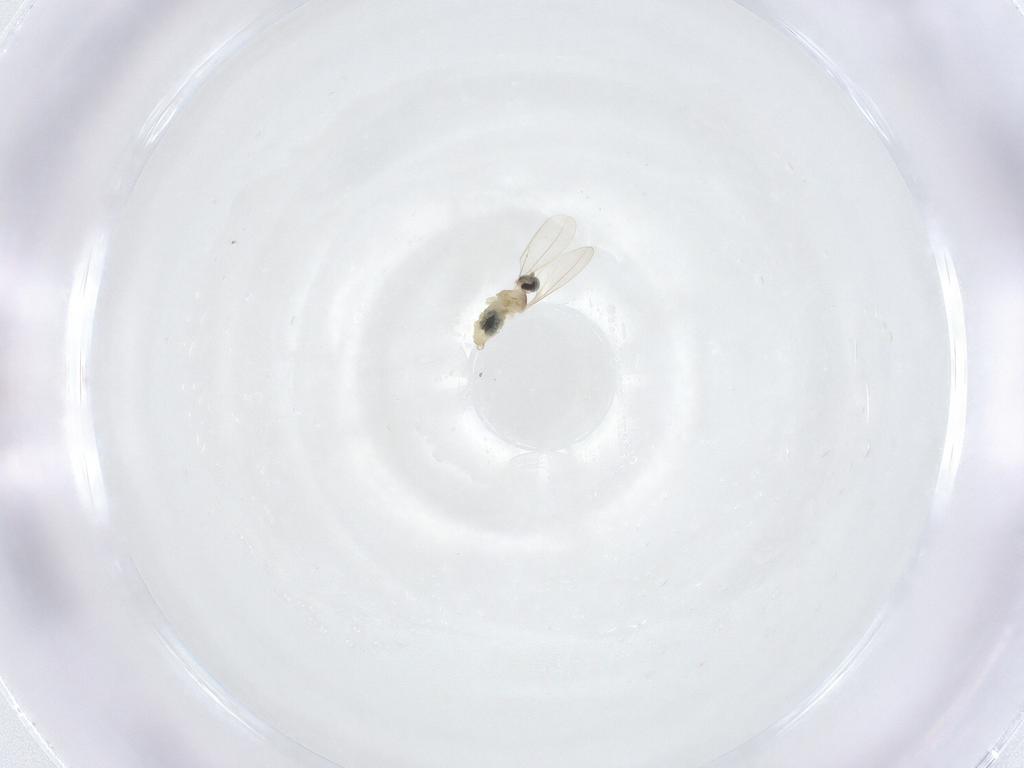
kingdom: Animalia
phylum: Arthropoda
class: Insecta
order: Diptera
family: Cecidomyiidae
